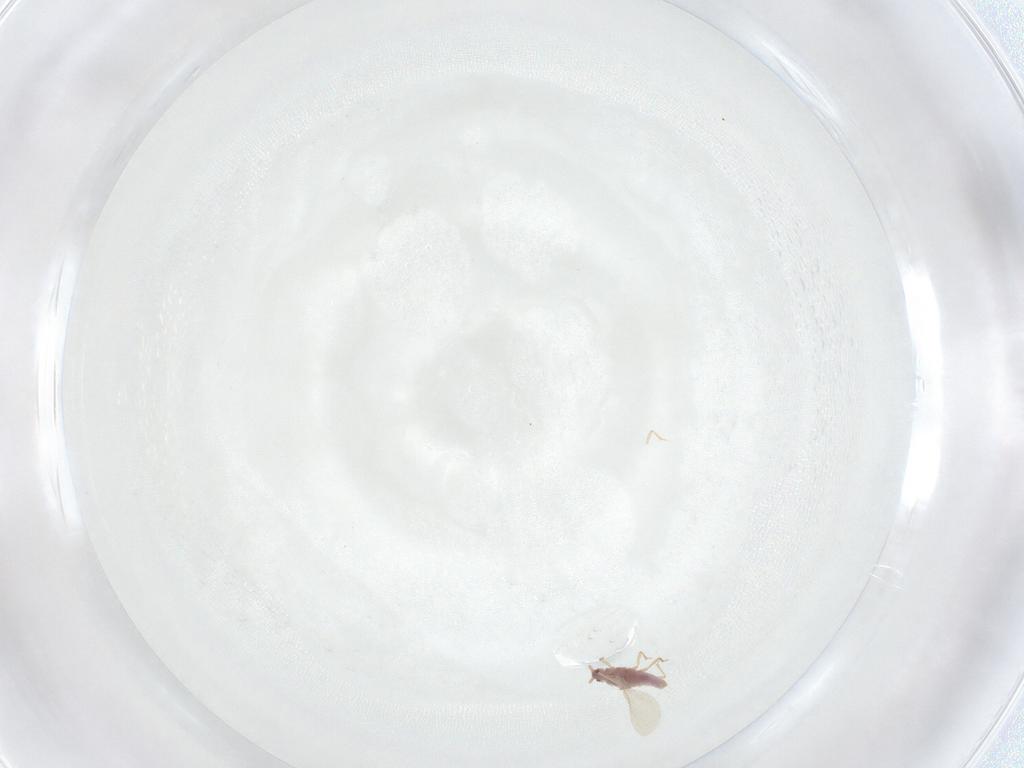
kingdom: Animalia
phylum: Arthropoda
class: Insecta
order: Hemiptera
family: Pseudococcidae
